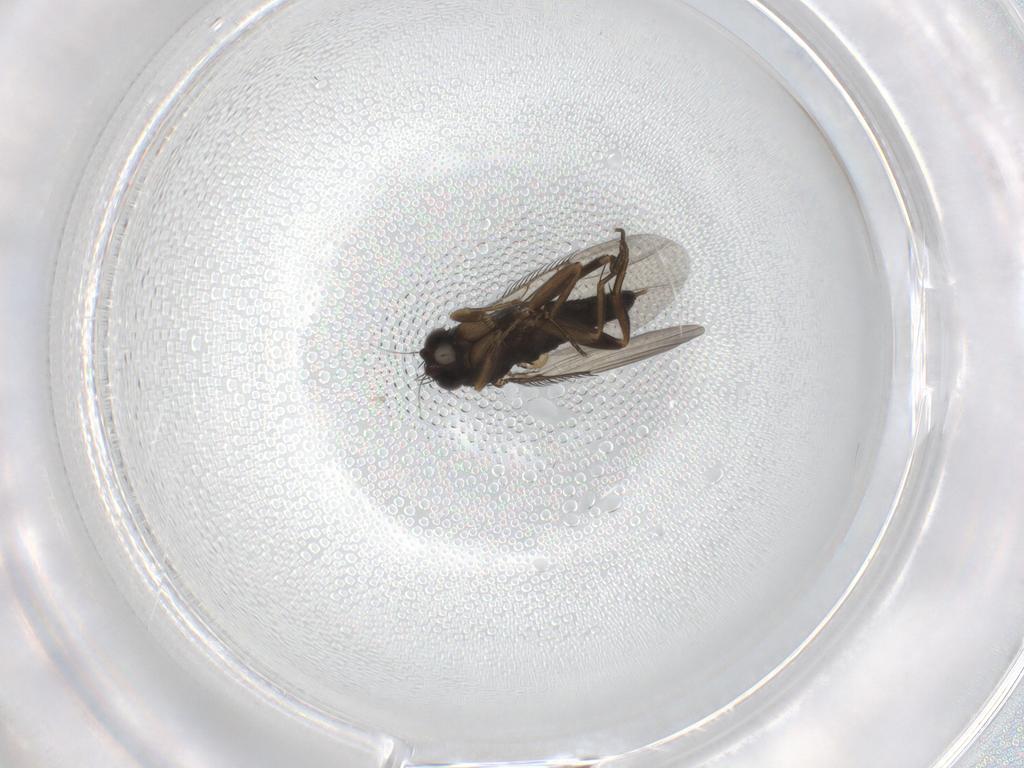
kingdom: Animalia
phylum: Arthropoda
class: Insecta
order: Diptera
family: Phoridae
